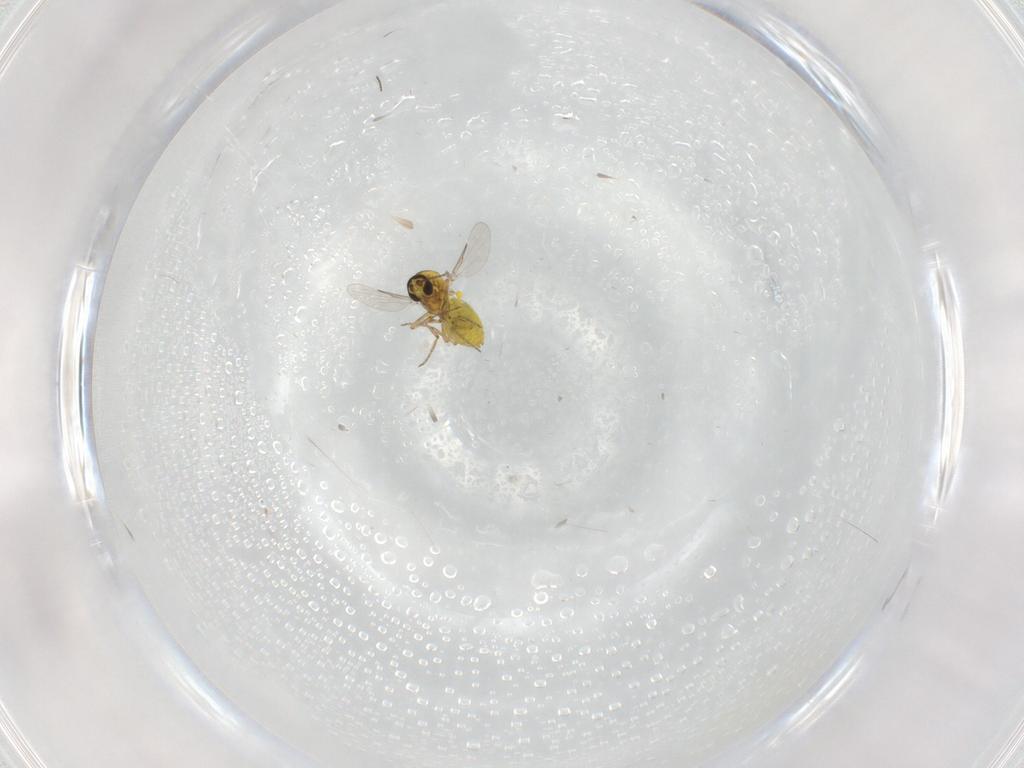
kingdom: Animalia
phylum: Arthropoda
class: Insecta
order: Diptera
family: Ceratopogonidae
